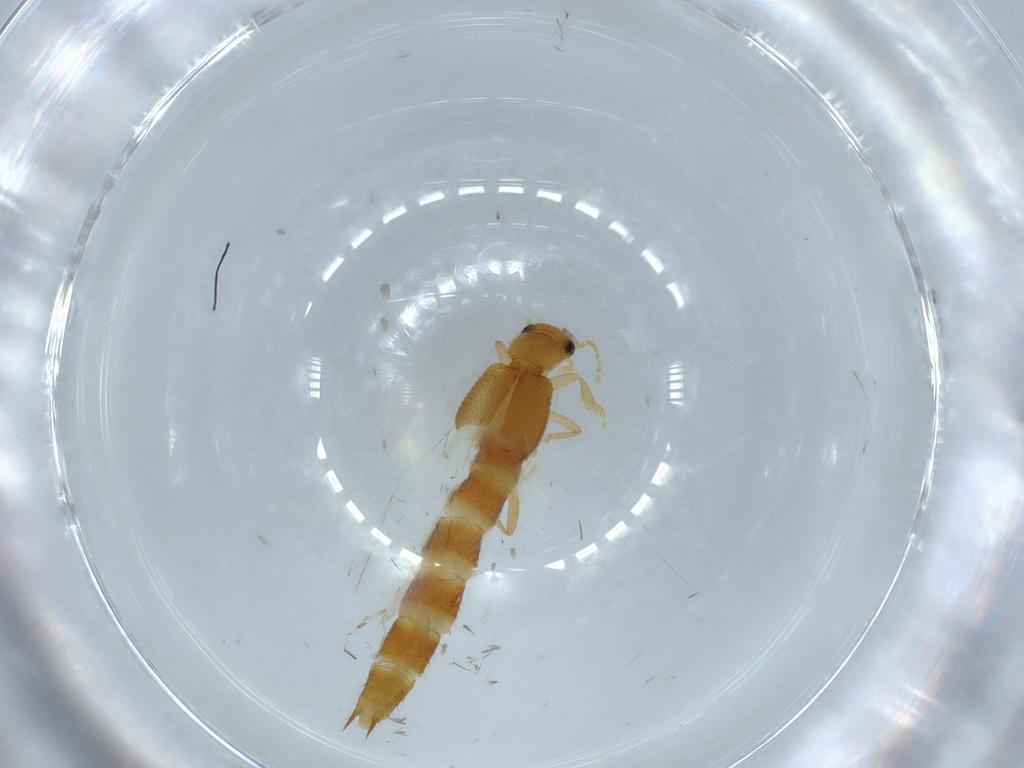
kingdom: Animalia
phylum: Arthropoda
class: Insecta
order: Coleoptera
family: Staphylinidae
